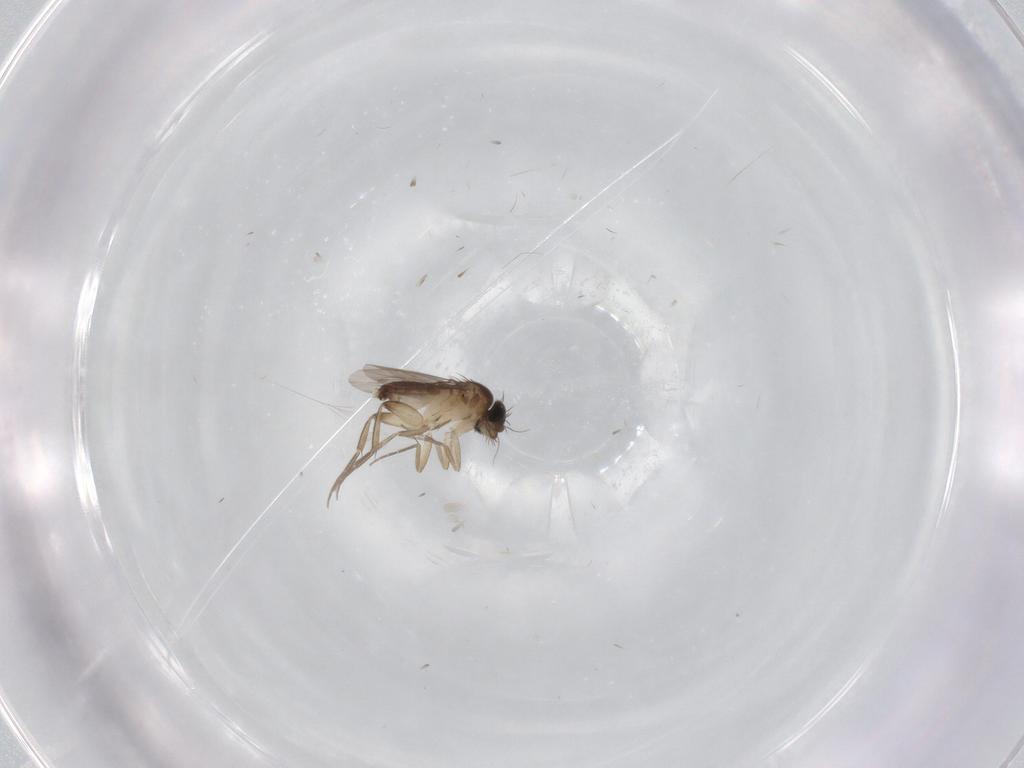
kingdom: Animalia
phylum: Arthropoda
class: Insecta
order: Diptera
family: Phoridae
